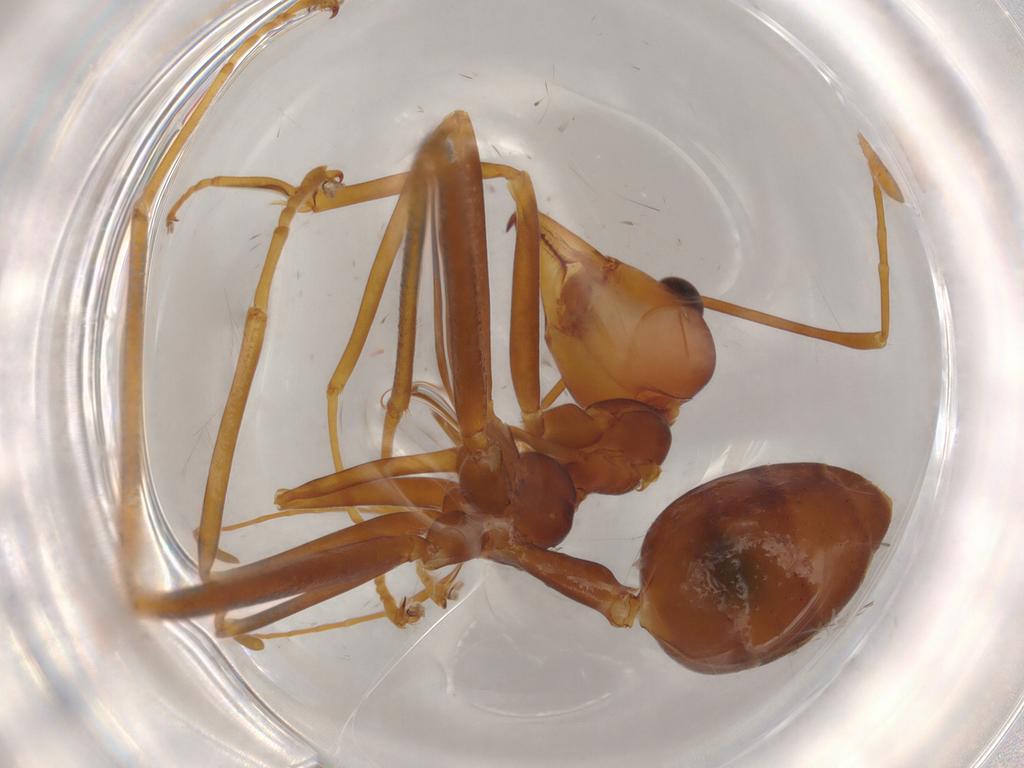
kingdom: Animalia
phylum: Arthropoda
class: Insecta
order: Hymenoptera
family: Formicidae
